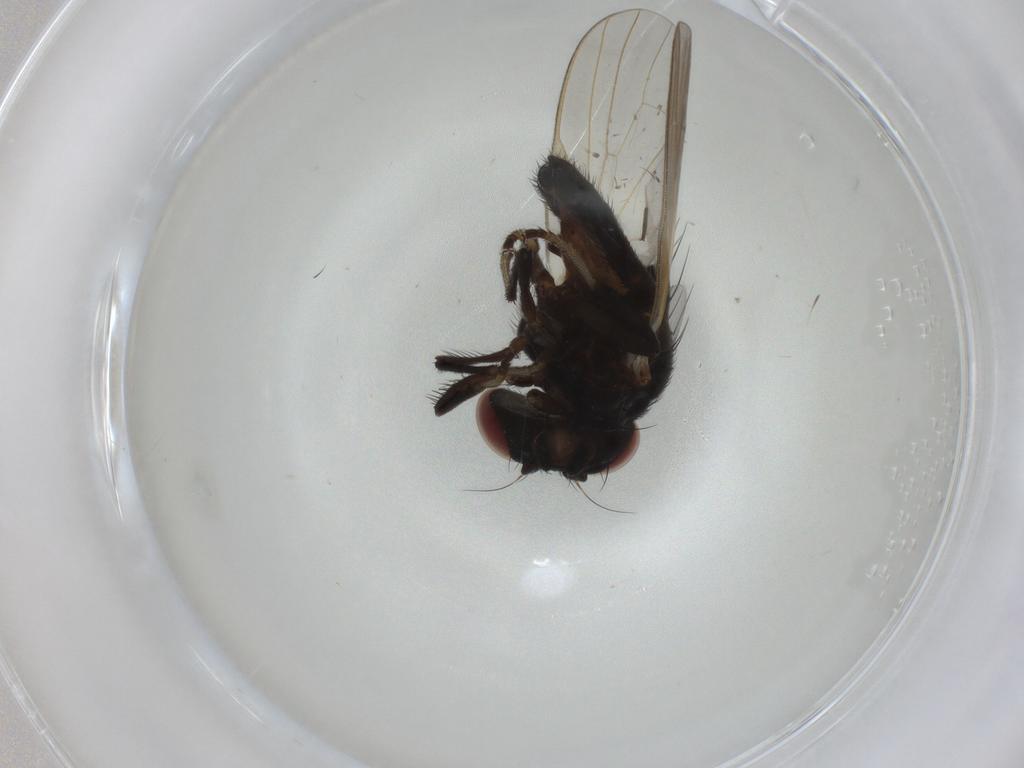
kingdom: Animalia
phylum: Arthropoda
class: Insecta
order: Diptera
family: Lonchaeidae
